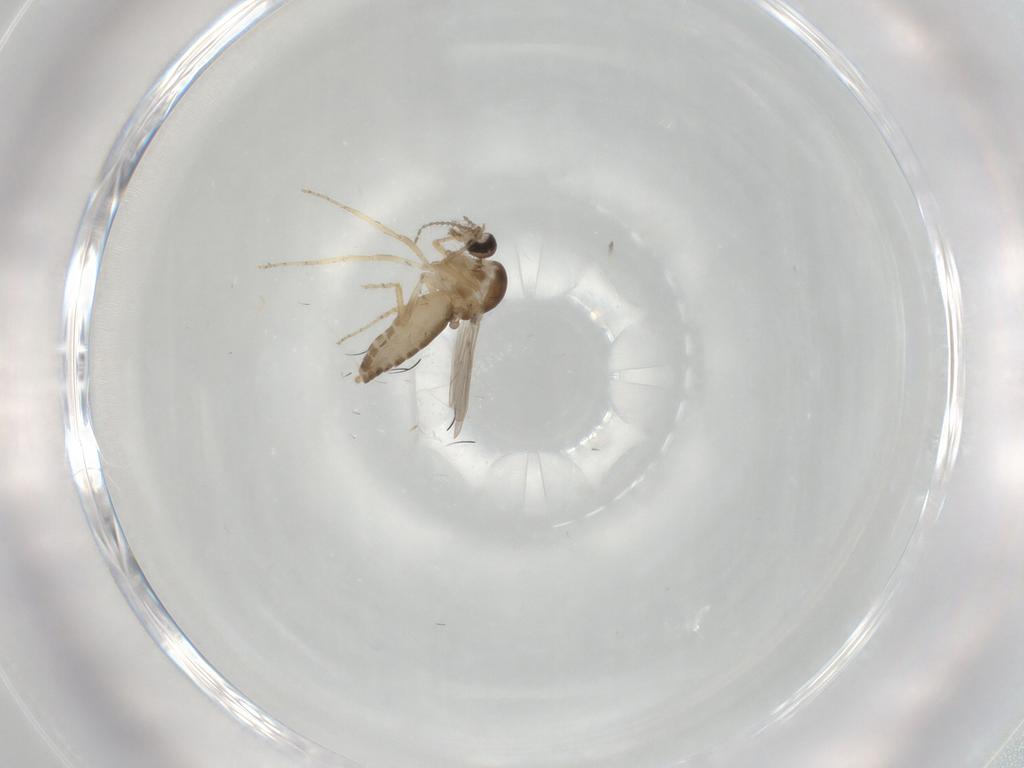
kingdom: Animalia
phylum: Arthropoda
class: Insecta
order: Diptera
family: Ceratopogonidae
